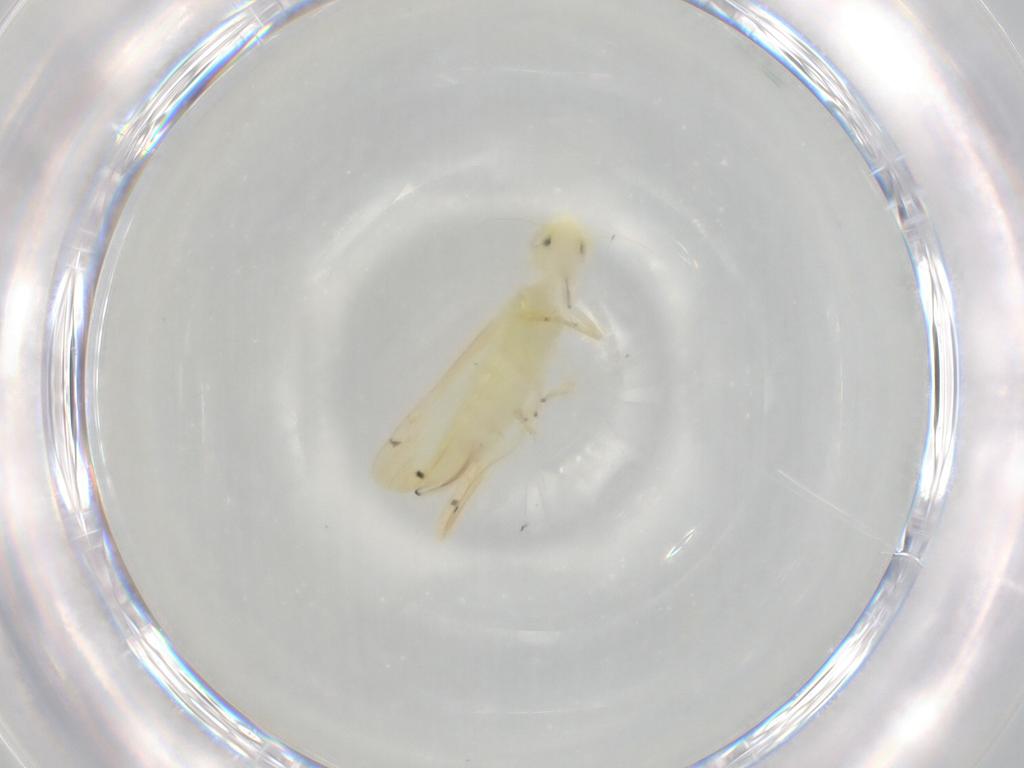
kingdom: Animalia
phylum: Arthropoda
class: Insecta
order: Hemiptera
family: Cicadellidae
